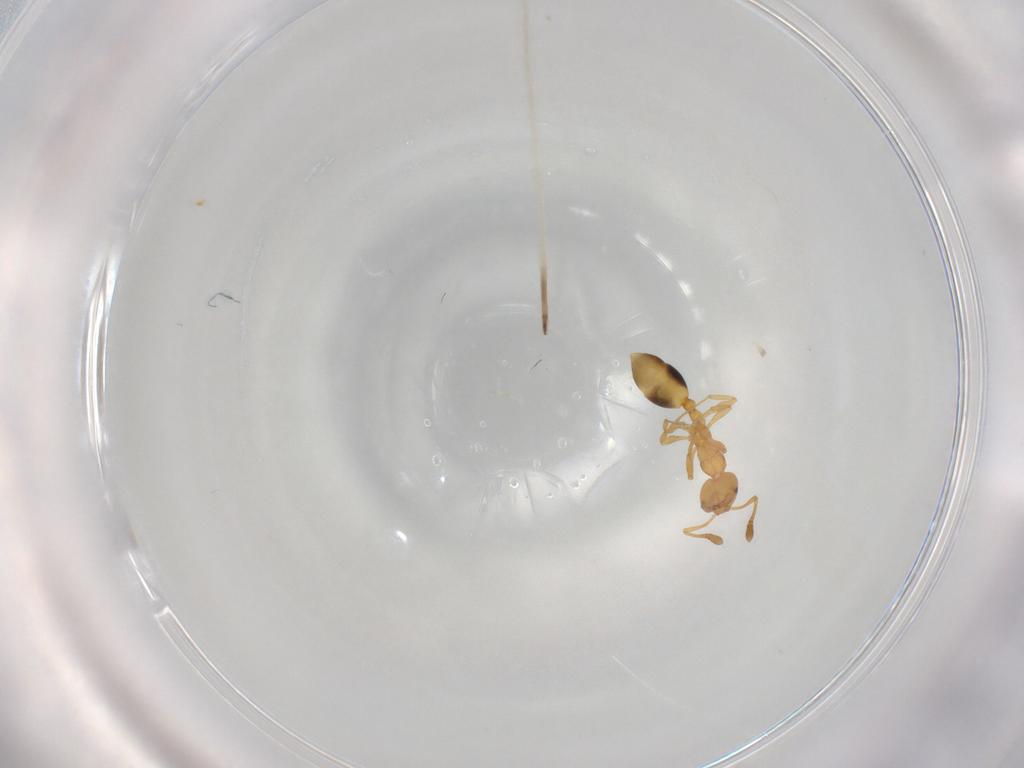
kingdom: Animalia
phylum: Arthropoda
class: Insecta
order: Hymenoptera
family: Formicidae
